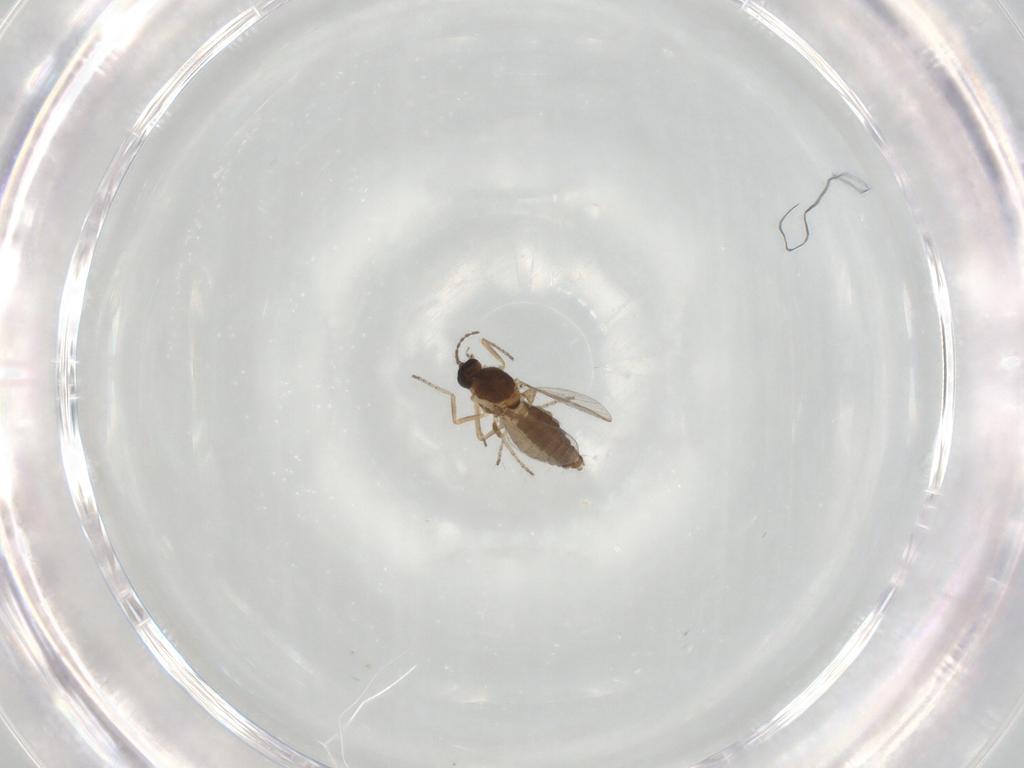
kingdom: Animalia
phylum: Arthropoda
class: Insecta
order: Diptera
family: Ceratopogonidae
